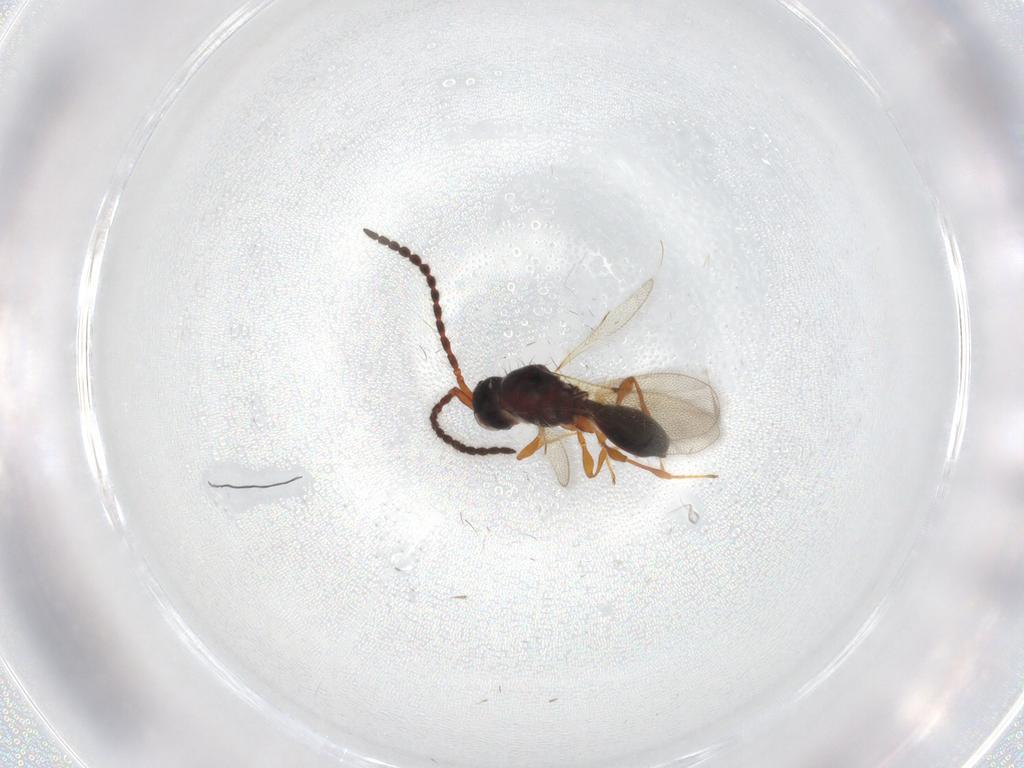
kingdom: Animalia
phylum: Arthropoda
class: Insecta
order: Hymenoptera
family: Diapriidae
